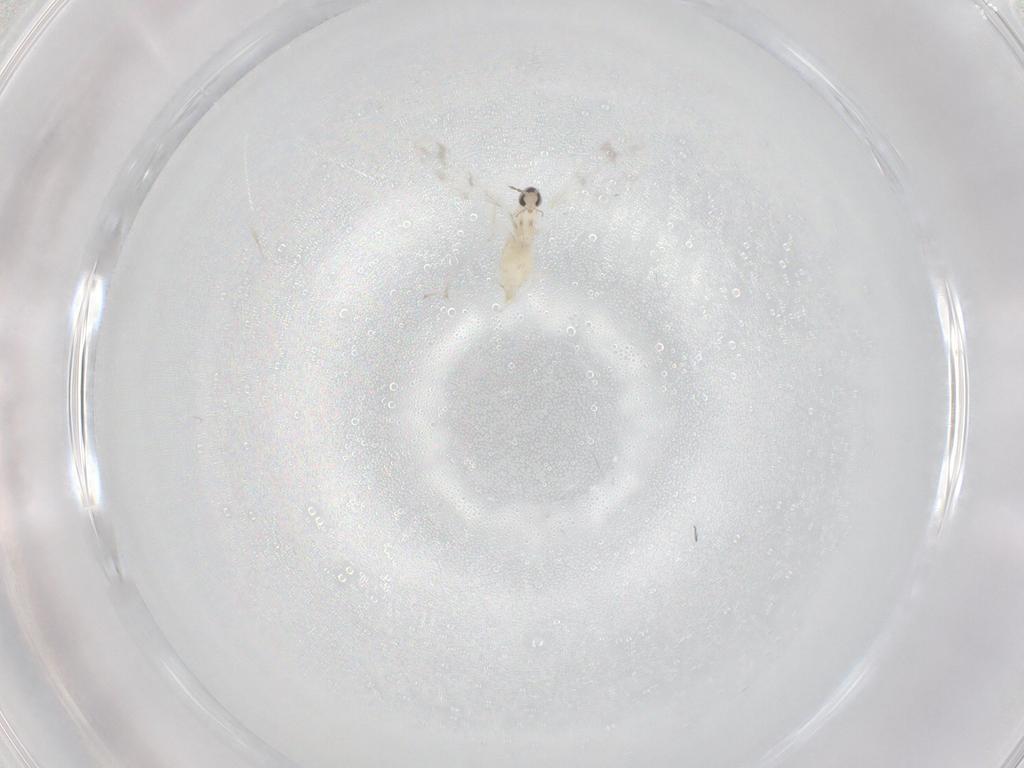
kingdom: Animalia
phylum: Arthropoda
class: Insecta
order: Diptera
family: Cecidomyiidae
